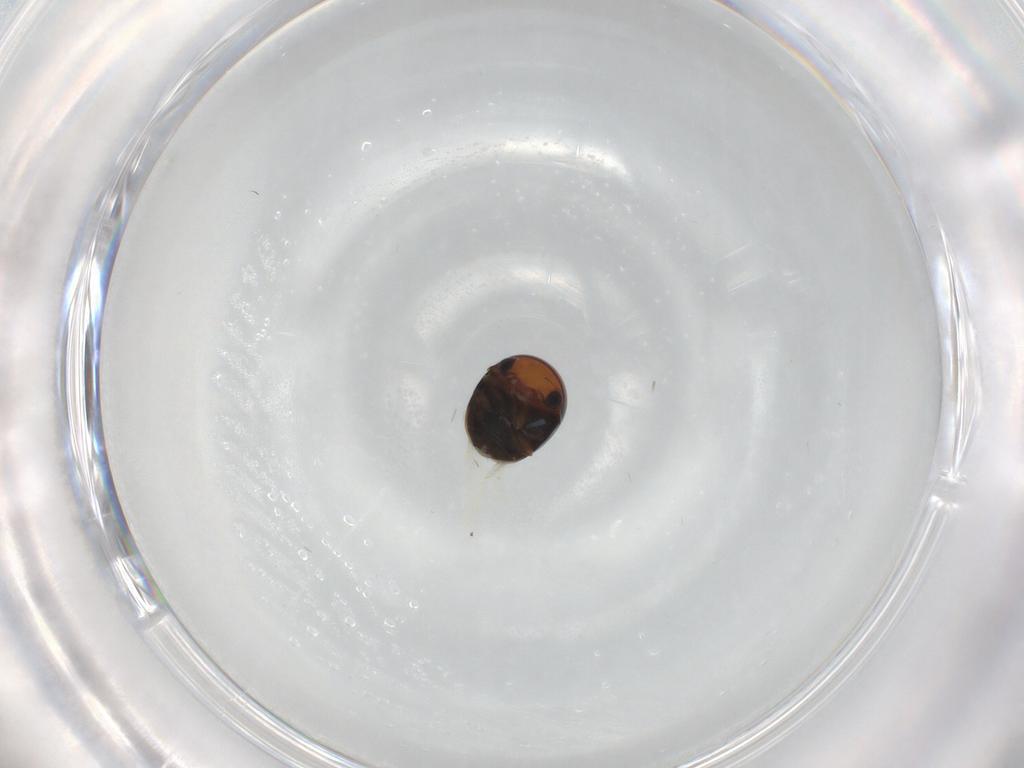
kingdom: Animalia
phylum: Arthropoda
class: Insecta
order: Coleoptera
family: Cybocephalidae
